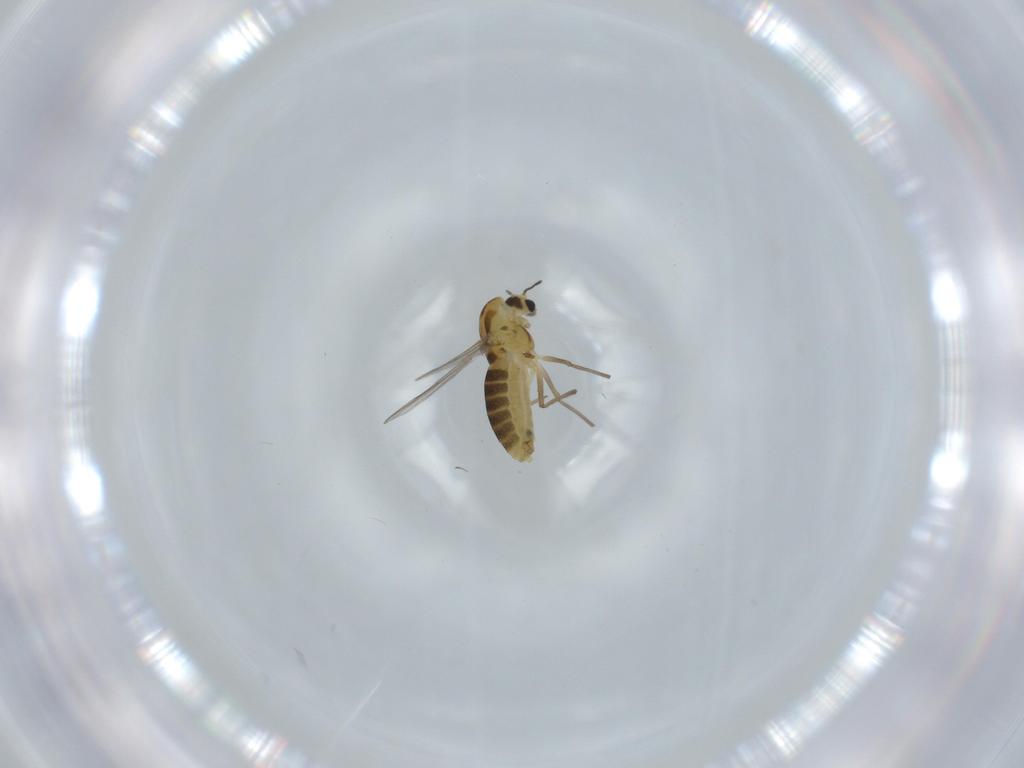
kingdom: Animalia
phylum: Arthropoda
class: Insecta
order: Diptera
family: Chironomidae
